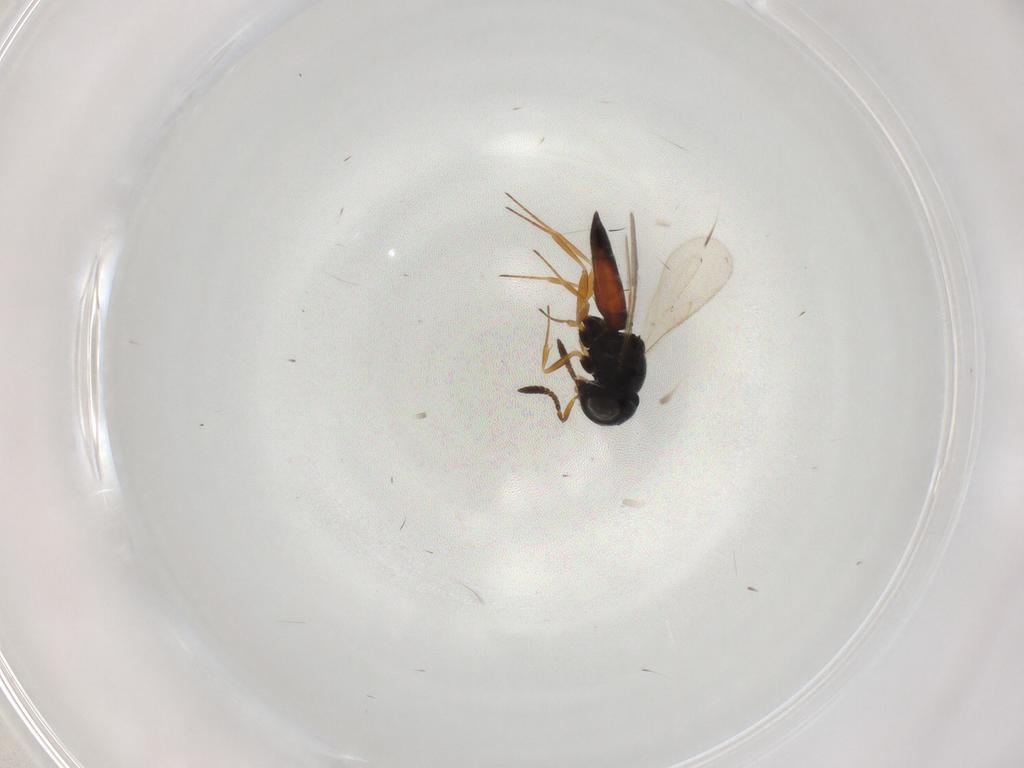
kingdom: Animalia
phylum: Arthropoda
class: Insecta
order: Hymenoptera
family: Scelionidae
